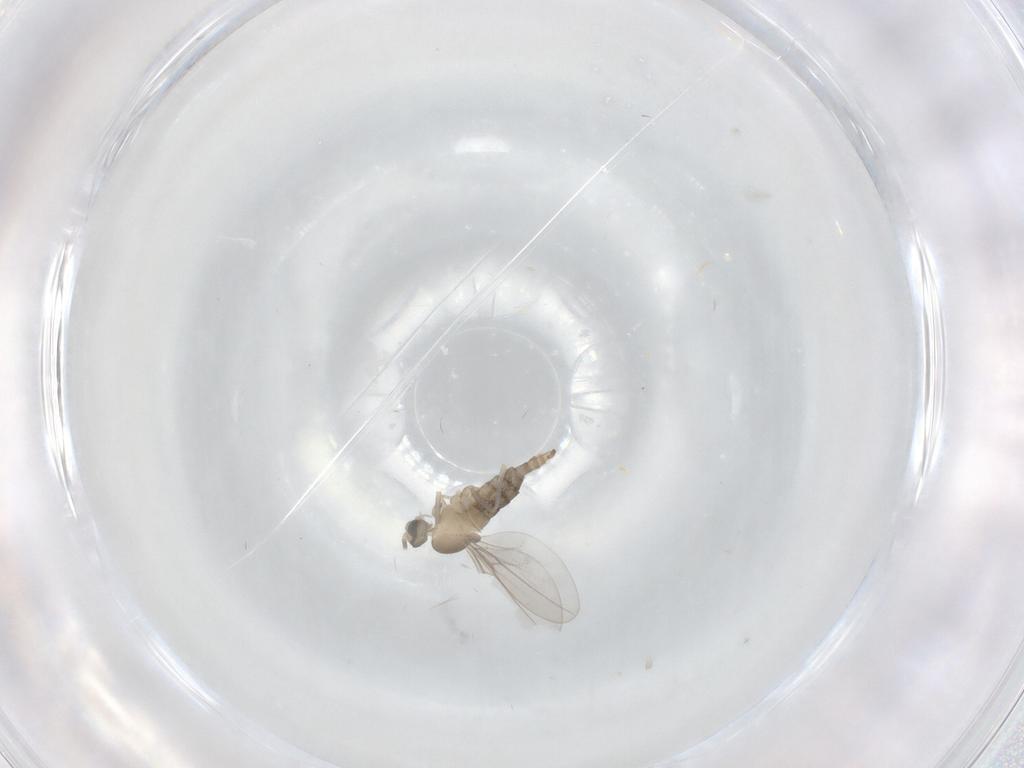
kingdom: Animalia
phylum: Arthropoda
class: Insecta
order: Diptera
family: Cecidomyiidae
